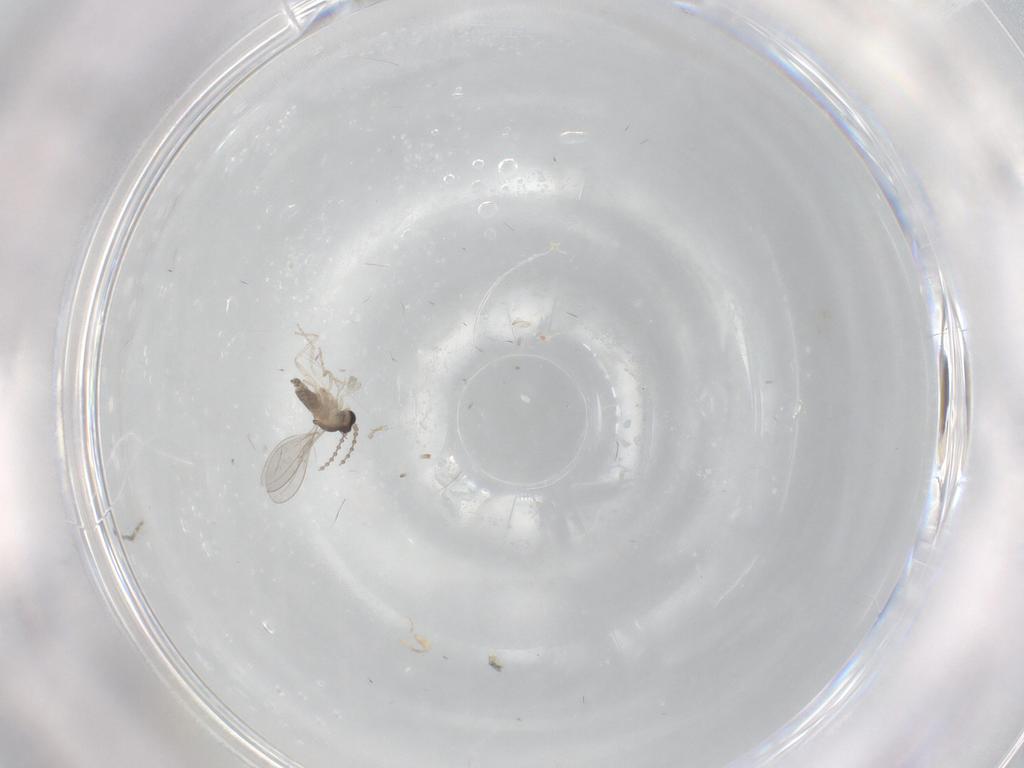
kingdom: Animalia
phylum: Arthropoda
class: Insecta
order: Diptera
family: Cecidomyiidae
